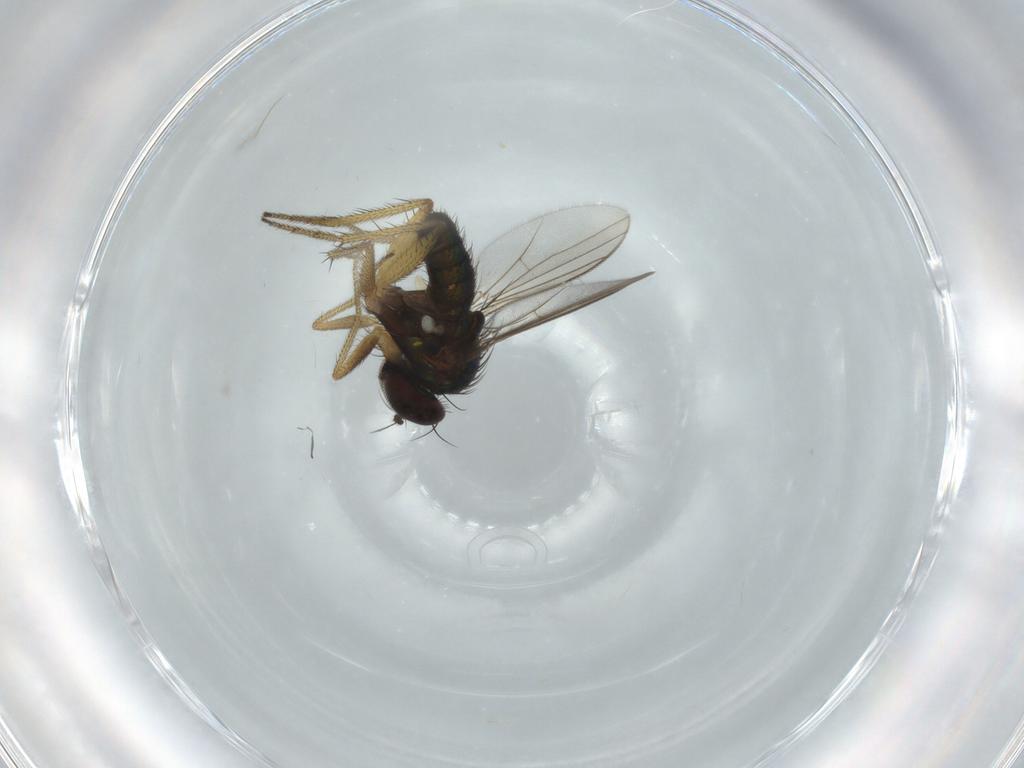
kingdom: Animalia
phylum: Arthropoda
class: Insecta
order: Diptera
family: Dolichopodidae
